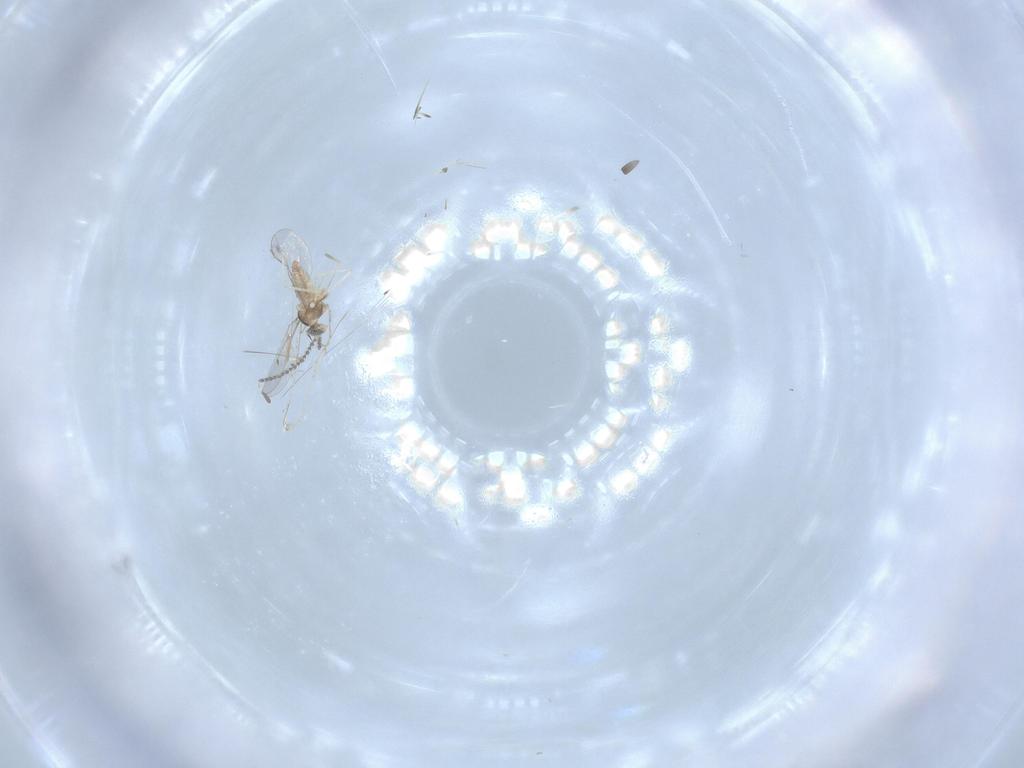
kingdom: Animalia
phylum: Arthropoda
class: Insecta
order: Diptera
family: Cecidomyiidae
